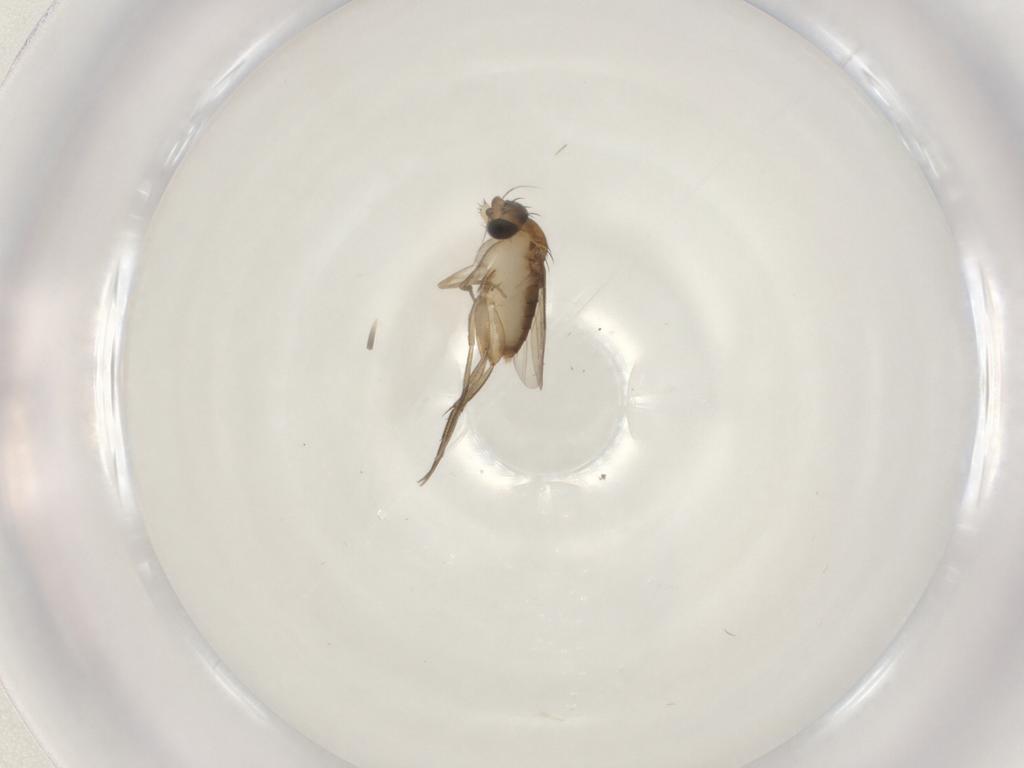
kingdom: Animalia
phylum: Arthropoda
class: Insecta
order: Diptera
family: Phoridae
